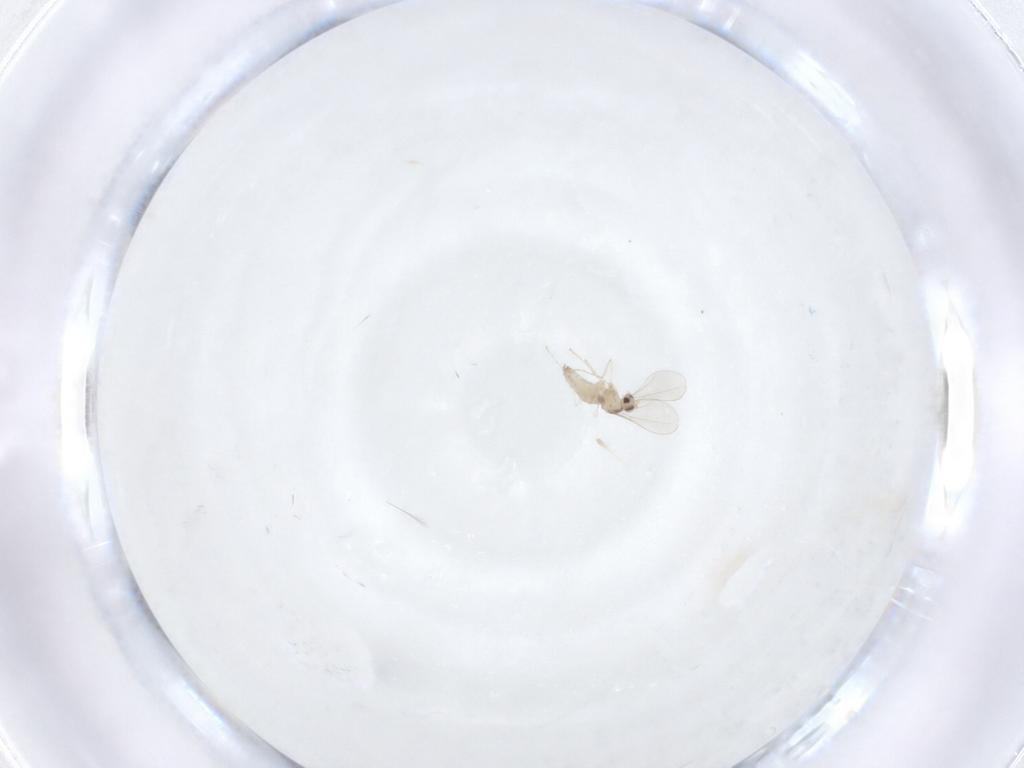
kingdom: Animalia
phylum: Arthropoda
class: Insecta
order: Diptera
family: Cecidomyiidae
